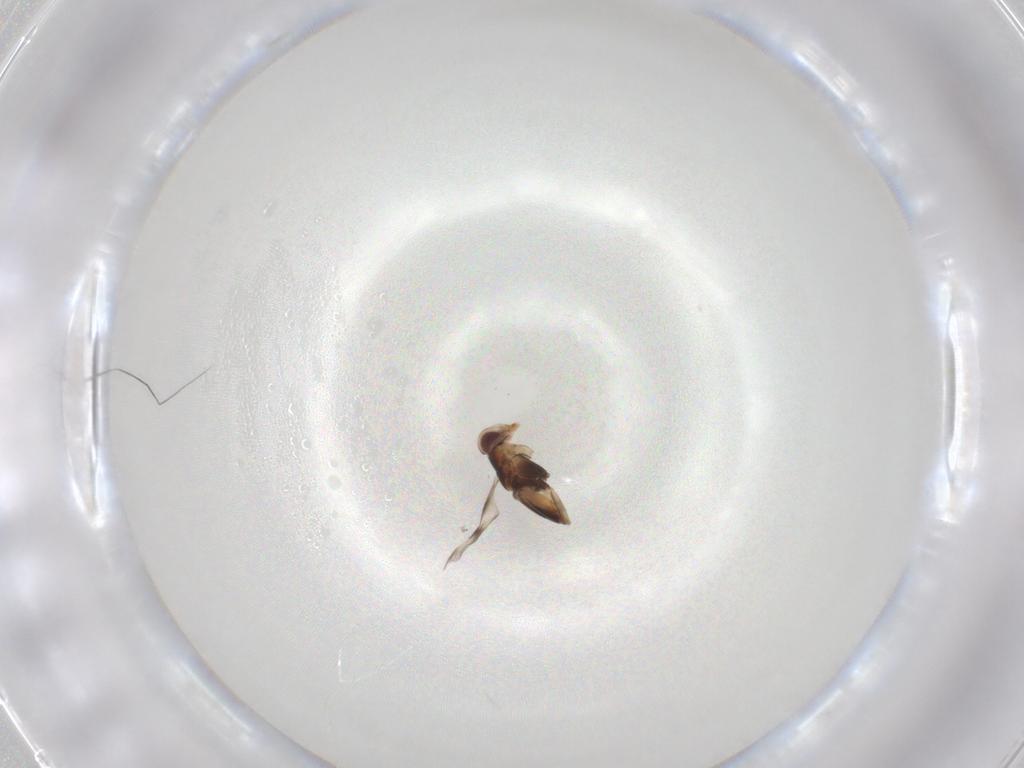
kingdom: Animalia
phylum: Arthropoda
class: Insecta
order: Hymenoptera
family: Encyrtidae
